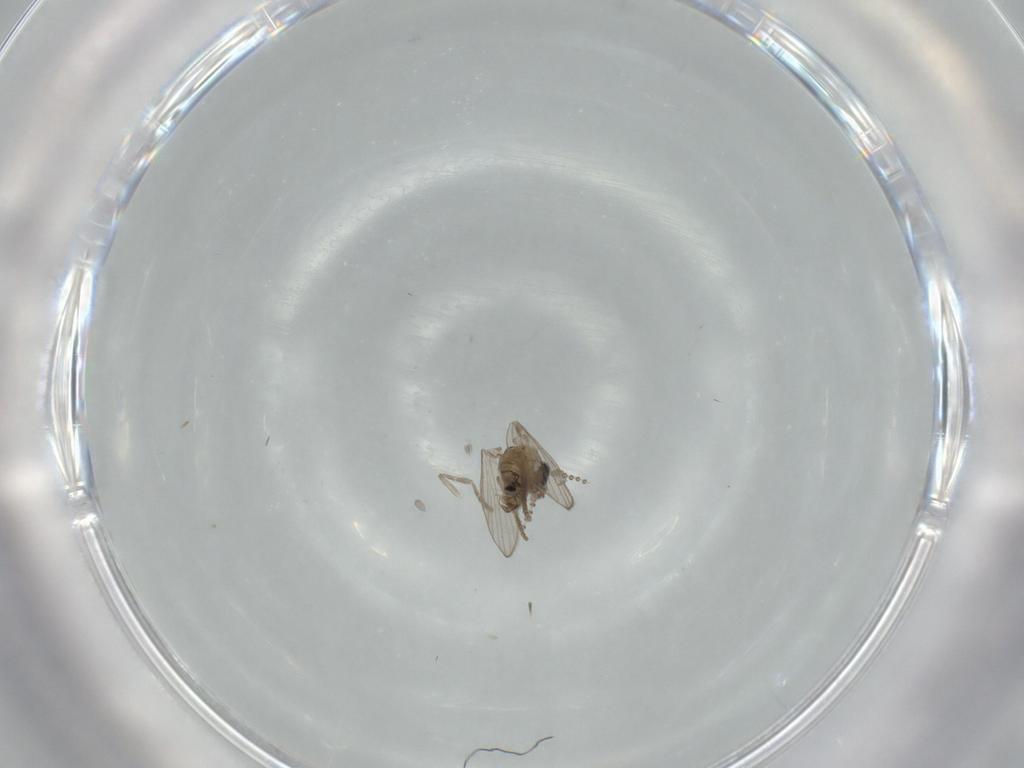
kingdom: Animalia
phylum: Arthropoda
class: Insecta
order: Diptera
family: Psychodidae
